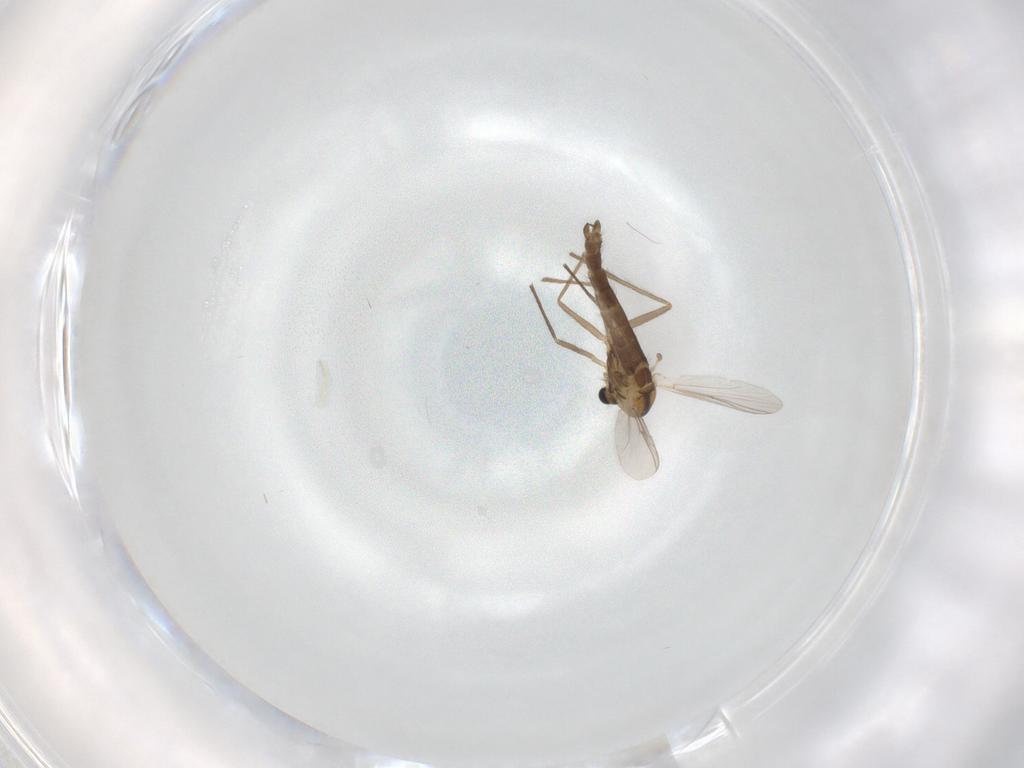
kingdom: Animalia
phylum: Arthropoda
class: Insecta
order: Diptera
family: Chironomidae
